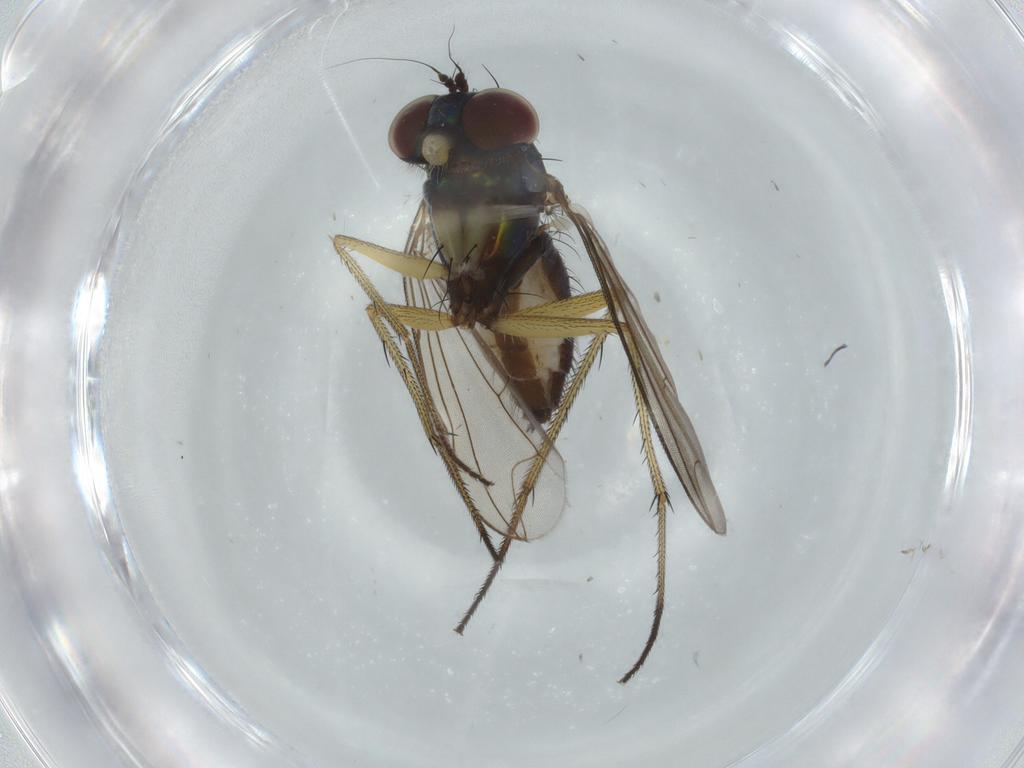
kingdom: Animalia
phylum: Arthropoda
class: Insecta
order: Diptera
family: Dolichopodidae
